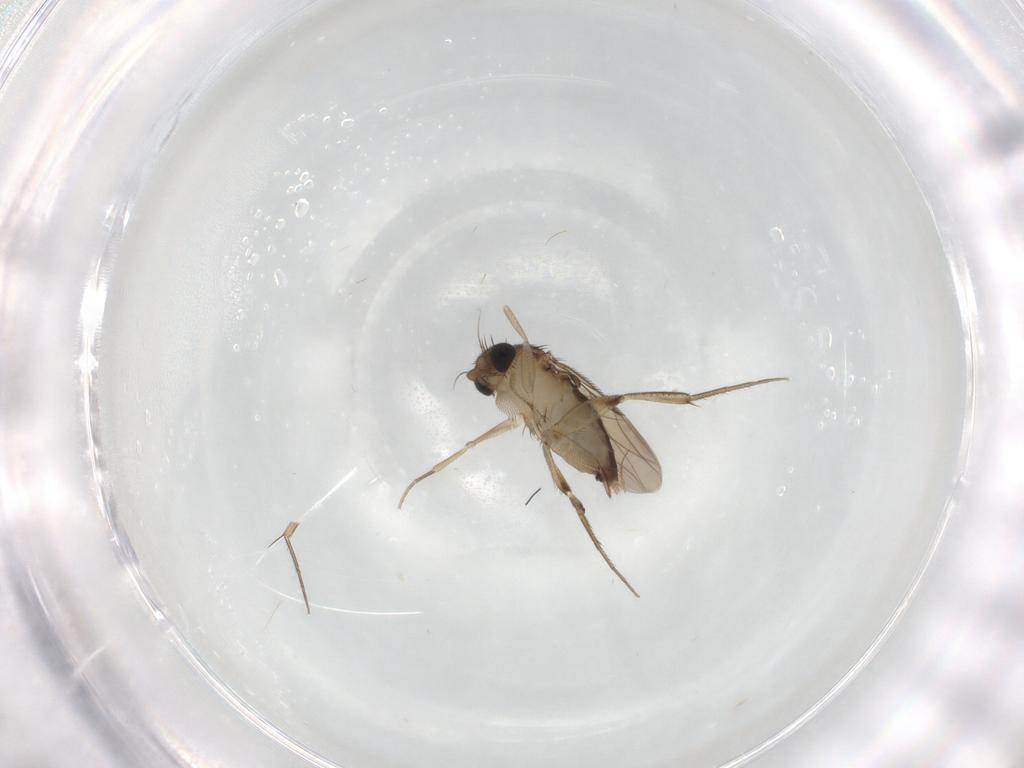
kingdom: Animalia
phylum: Arthropoda
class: Insecta
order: Diptera
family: Phoridae
